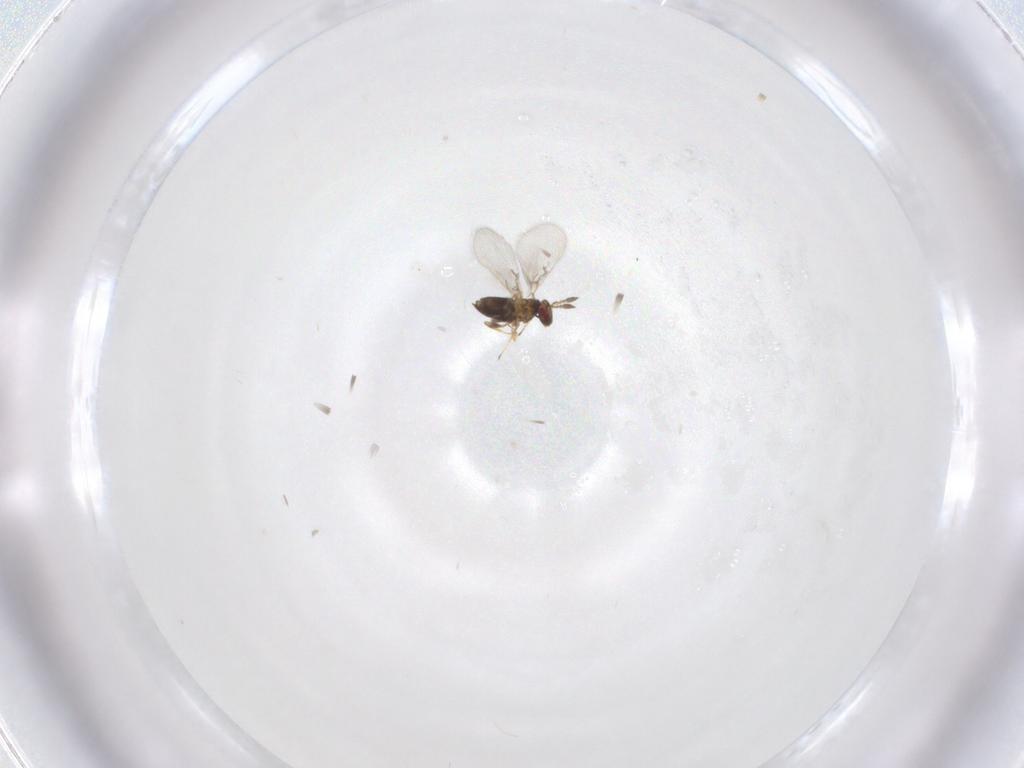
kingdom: Animalia
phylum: Arthropoda
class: Insecta
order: Hymenoptera
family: Trichogrammatidae
